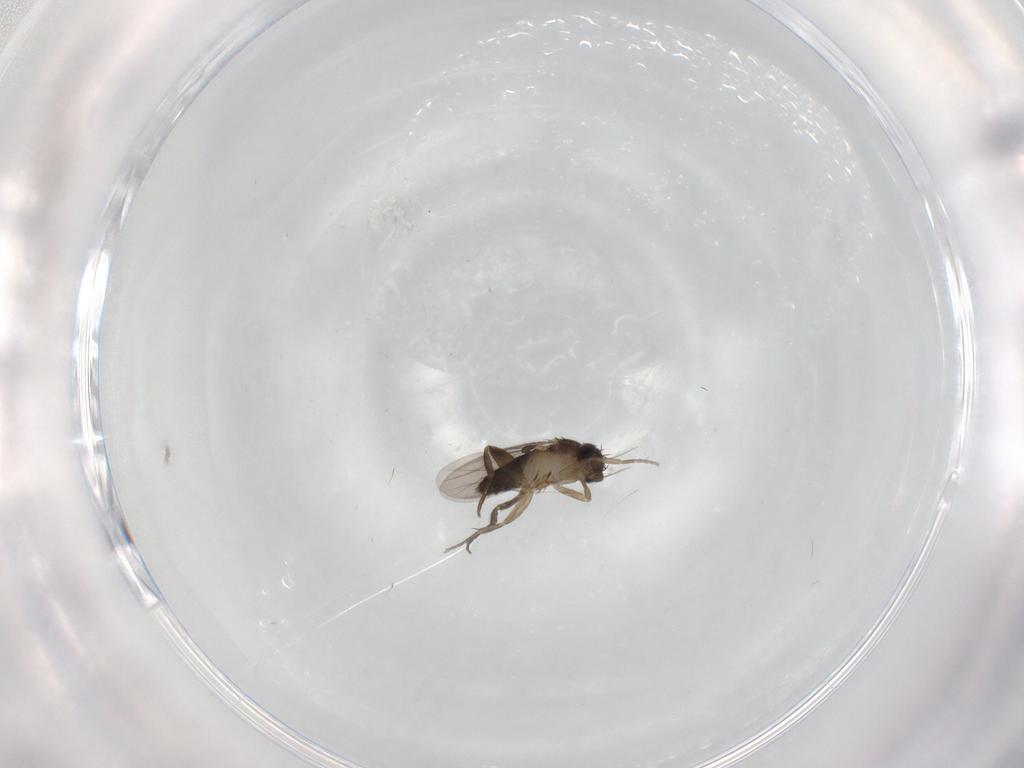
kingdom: Animalia
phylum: Arthropoda
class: Insecta
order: Diptera
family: Phoridae
